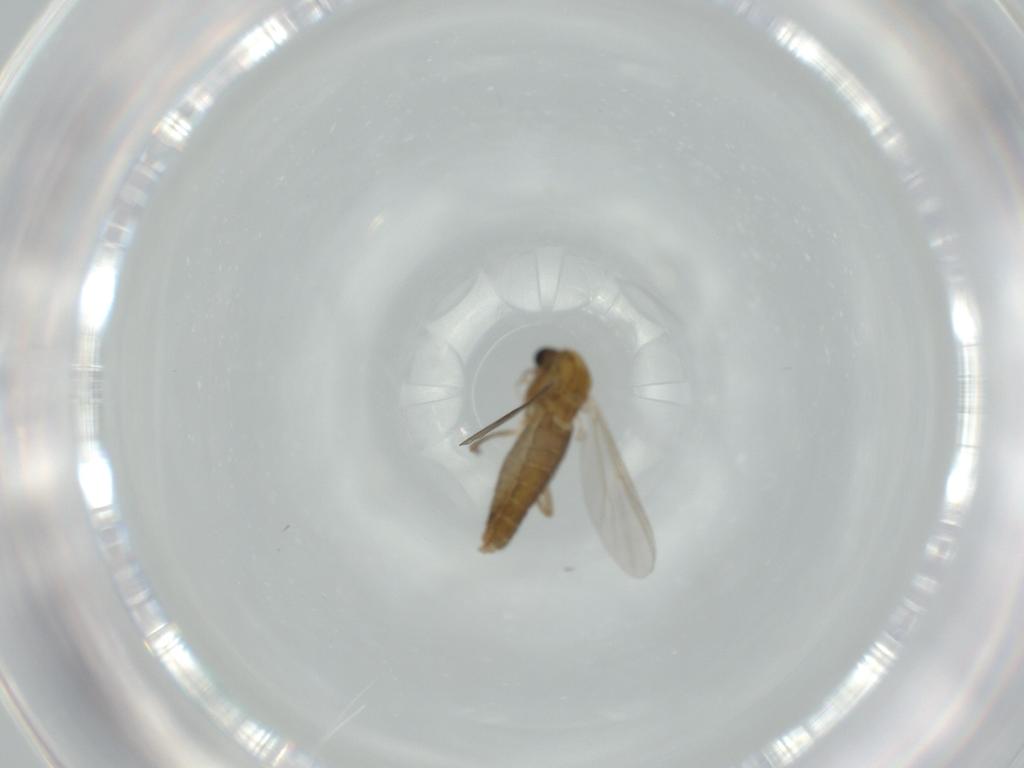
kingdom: Animalia
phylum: Arthropoda
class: Insecta
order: Diptera
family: Chironomidae
